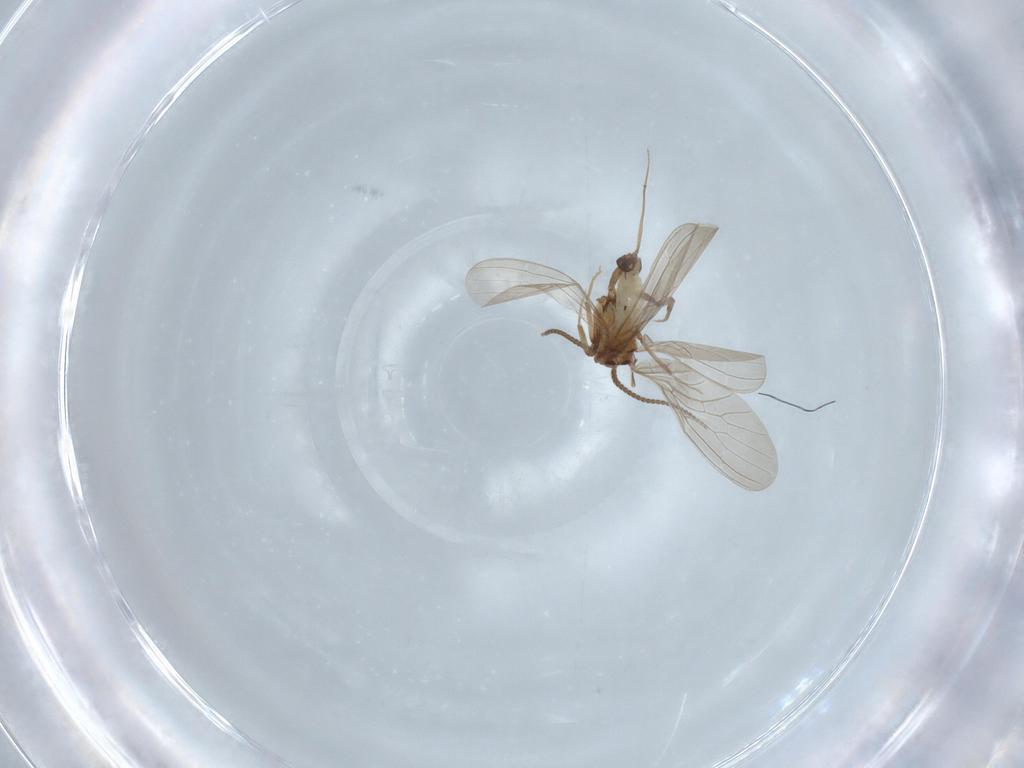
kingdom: Animalia
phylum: Arthropoda
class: Insecta
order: Neuroptera
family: Coniopterygidae
